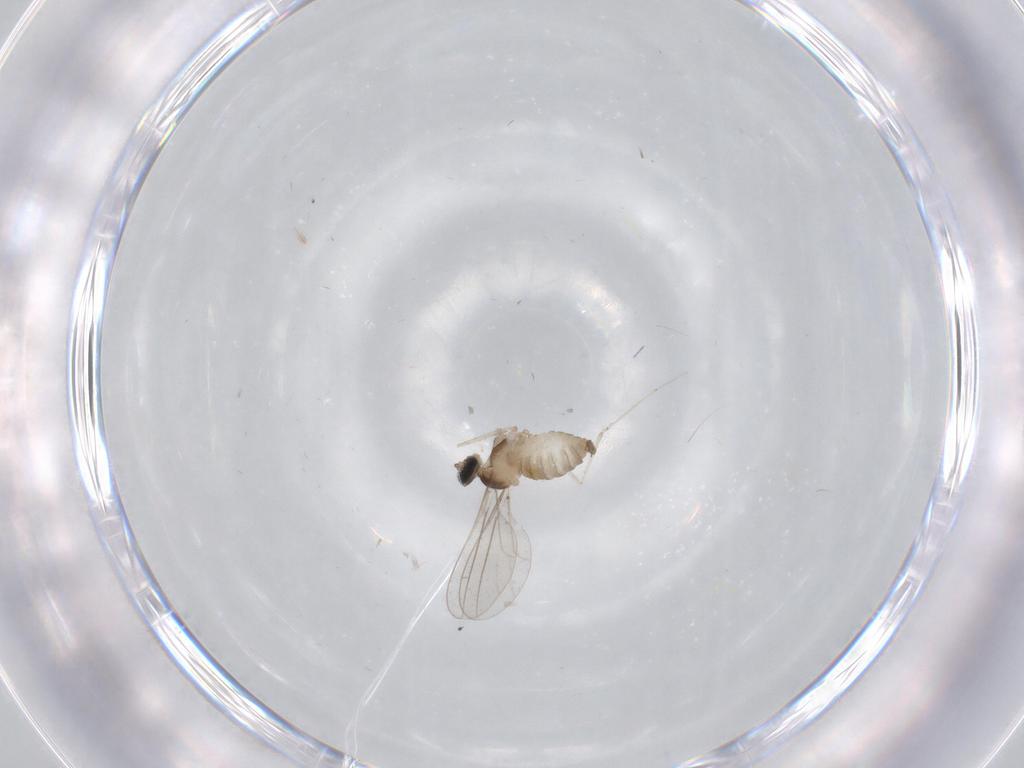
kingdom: Animalia
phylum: Arthropoda
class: Insecta
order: Diptera
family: Cecidomyiidae
